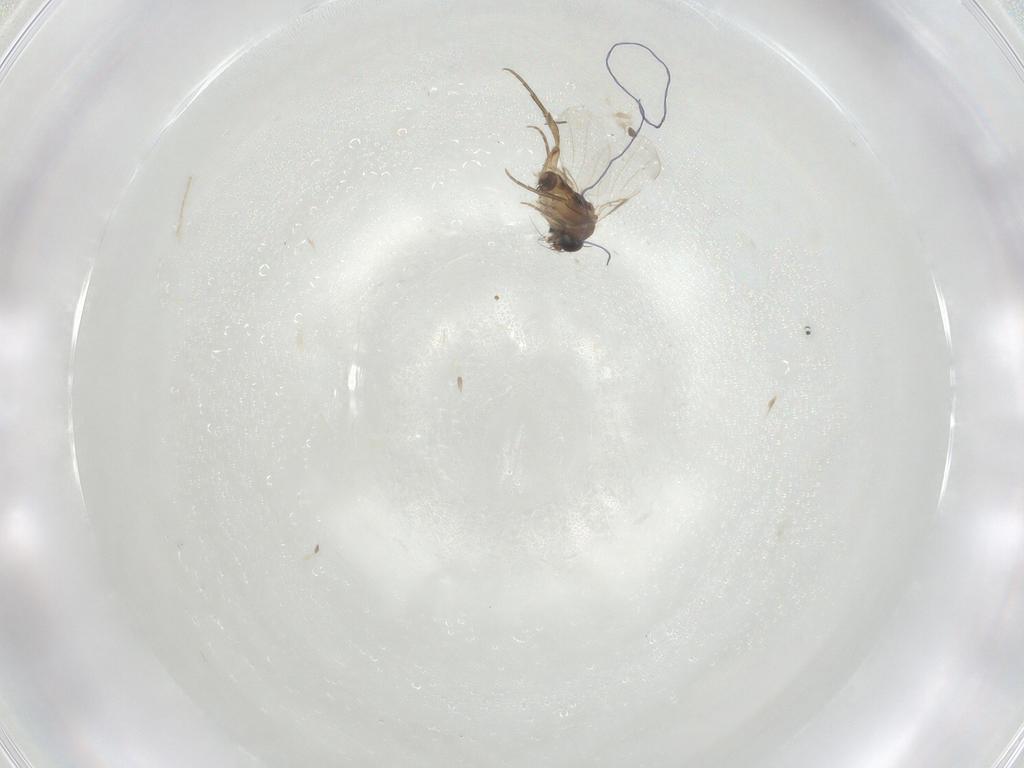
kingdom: Animalia
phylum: Arthropoda
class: Insecta
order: Diptera
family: Phoridae
